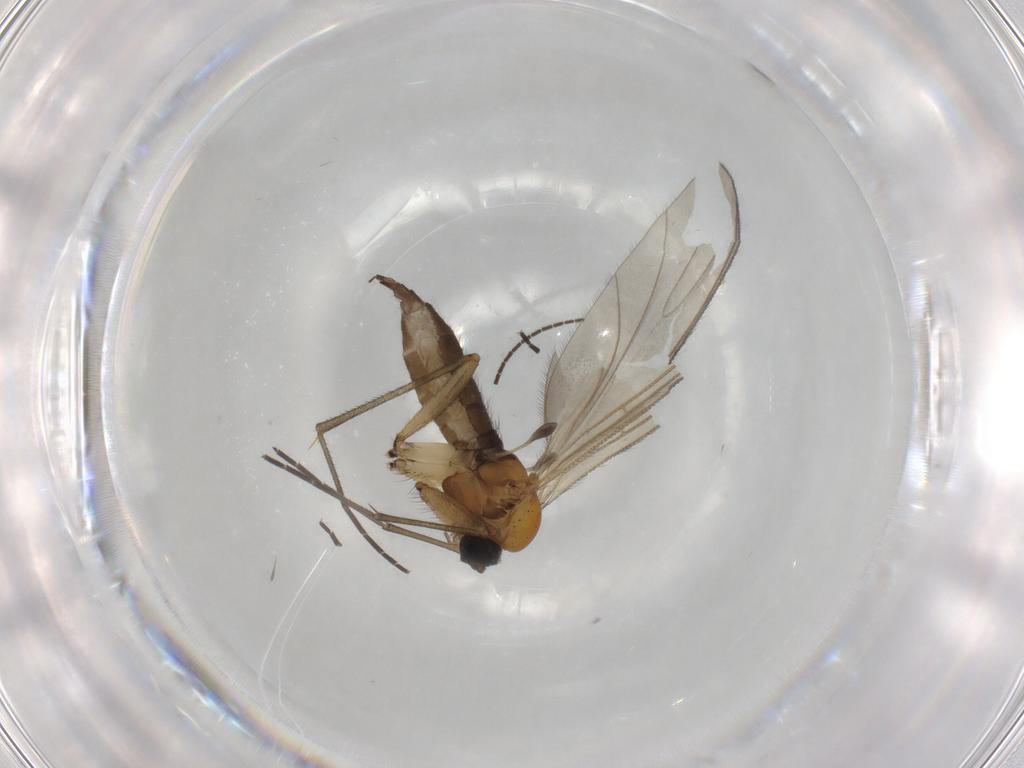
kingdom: Animalia
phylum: Arthropoda
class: Insecta
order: Diptera
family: Sciaridae
